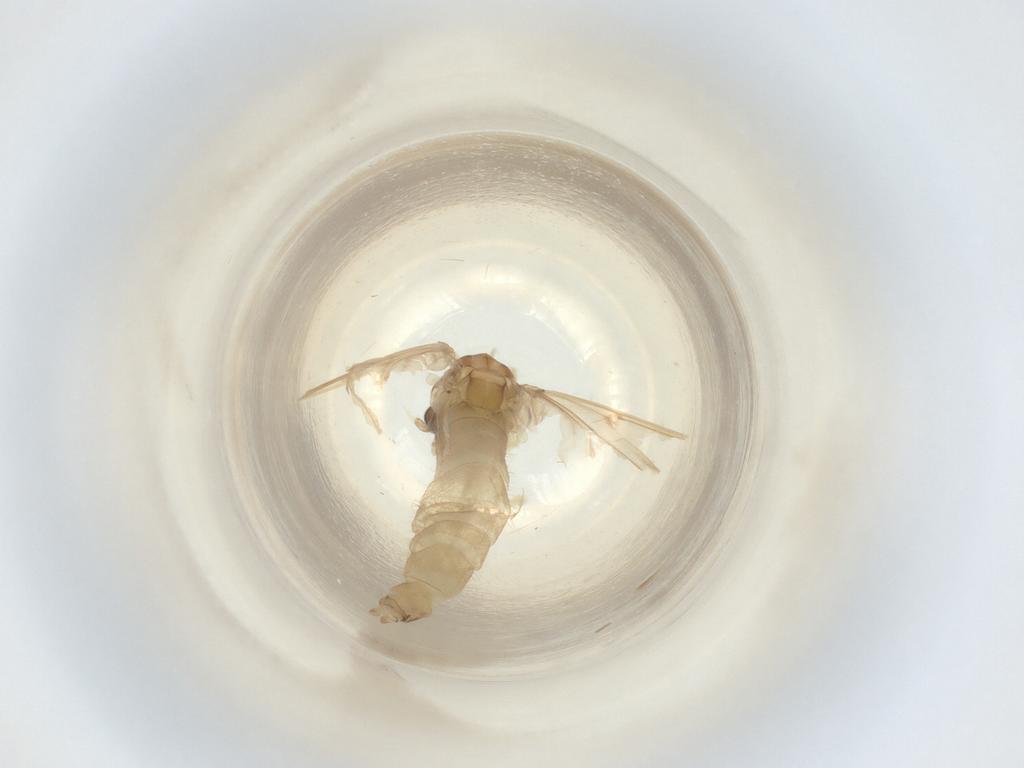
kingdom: Animalia
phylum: Arthropoda
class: Insecta
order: Diptera
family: Chironomidae
